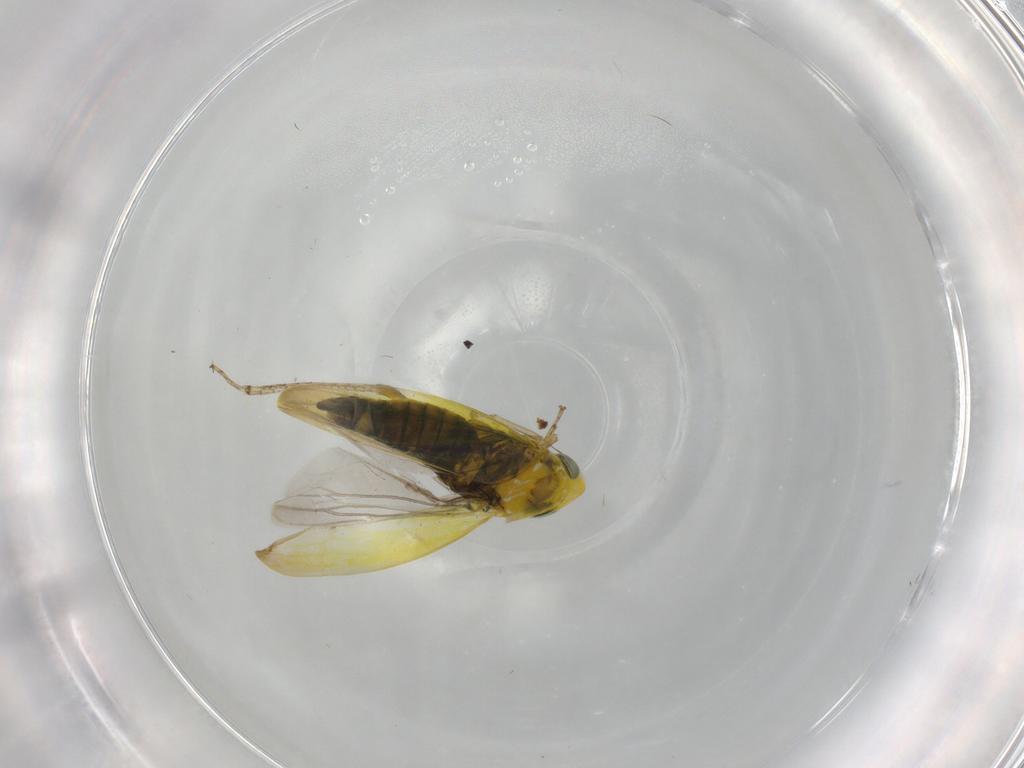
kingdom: Animalia
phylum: Arthropoda
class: Insecta
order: Hemiptera
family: Cicadellidae
